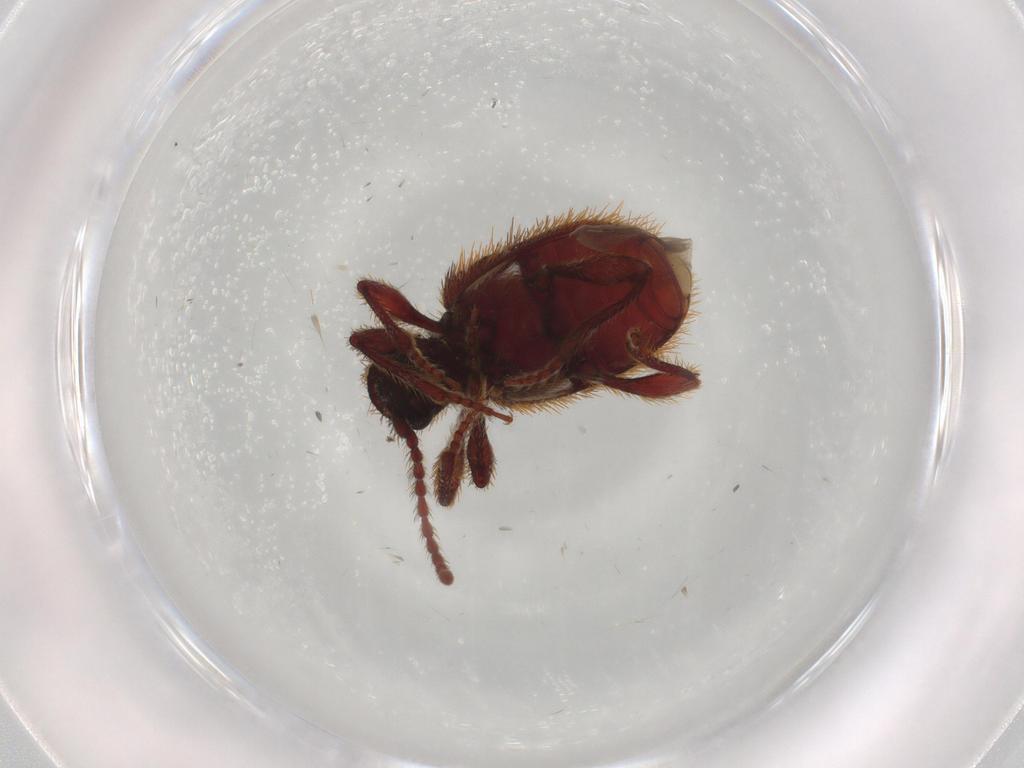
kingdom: Animalia
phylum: Arthropoda
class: Insecta
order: Coleoptera
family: Ptinidae
